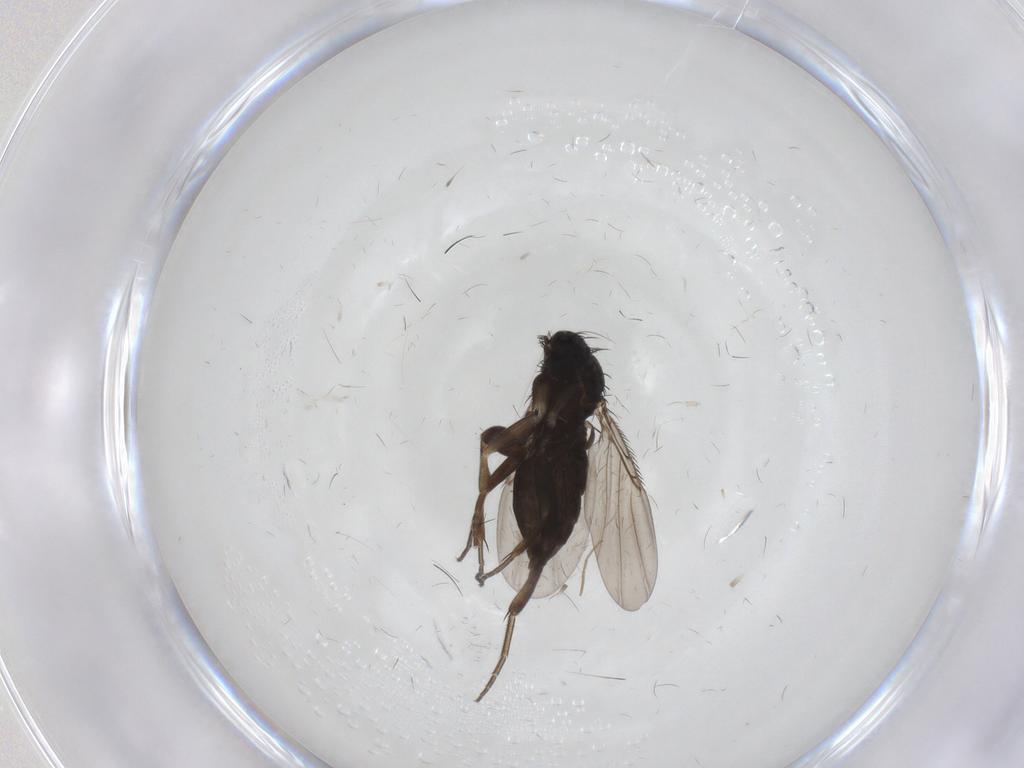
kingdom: Animalia
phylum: Arthropoda
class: Insecta
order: Diptera
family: Phoridae
